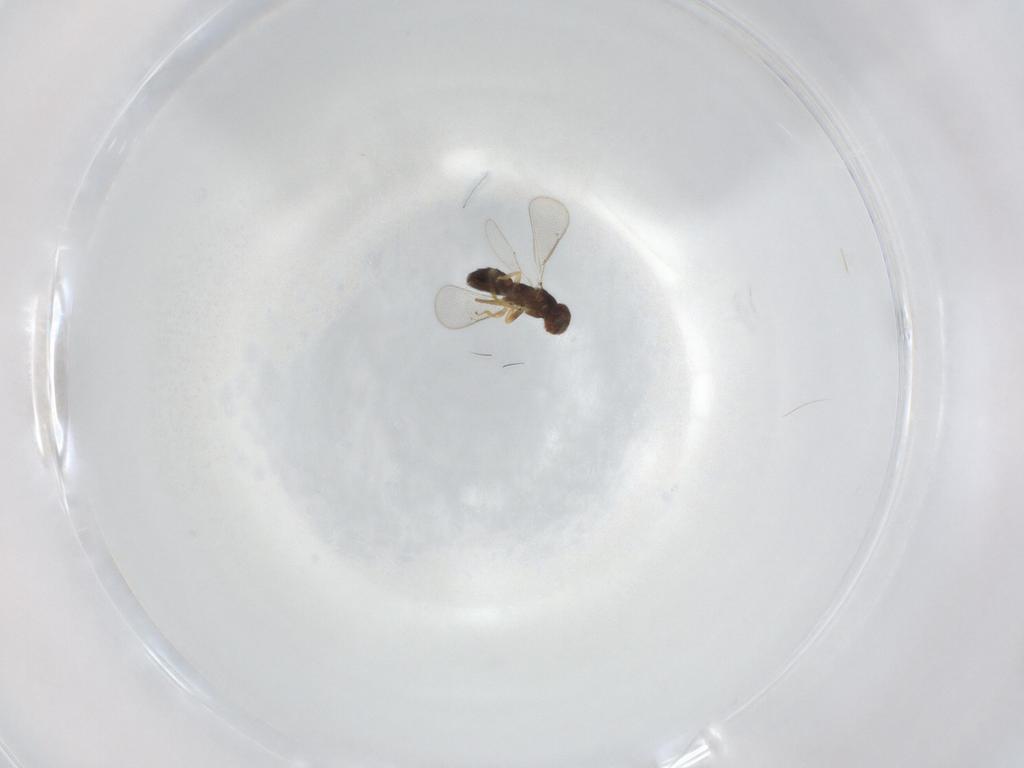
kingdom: Animalia
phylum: Arthropoda
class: Insecta
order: Hymenoptera
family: Eulophidae
